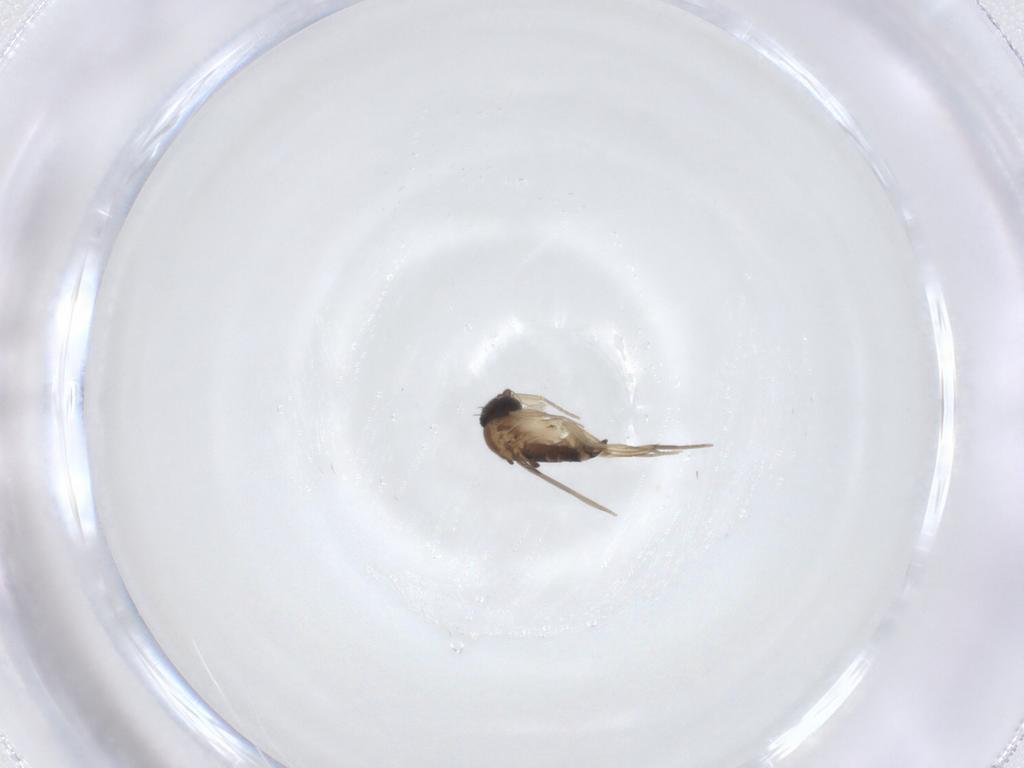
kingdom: Animalia
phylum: Arthropoda
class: Insecta
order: Diptera
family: Phoridae
